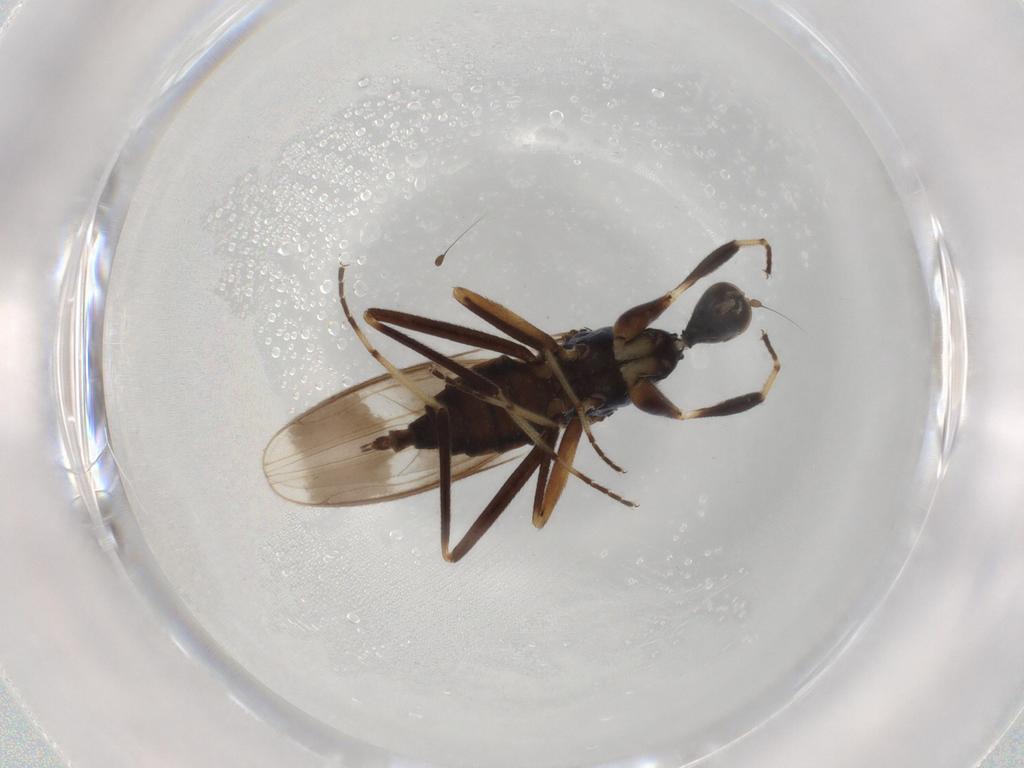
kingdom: Animalia
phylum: Arthropoda
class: Insecta
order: Diptera
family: Hybotidae
